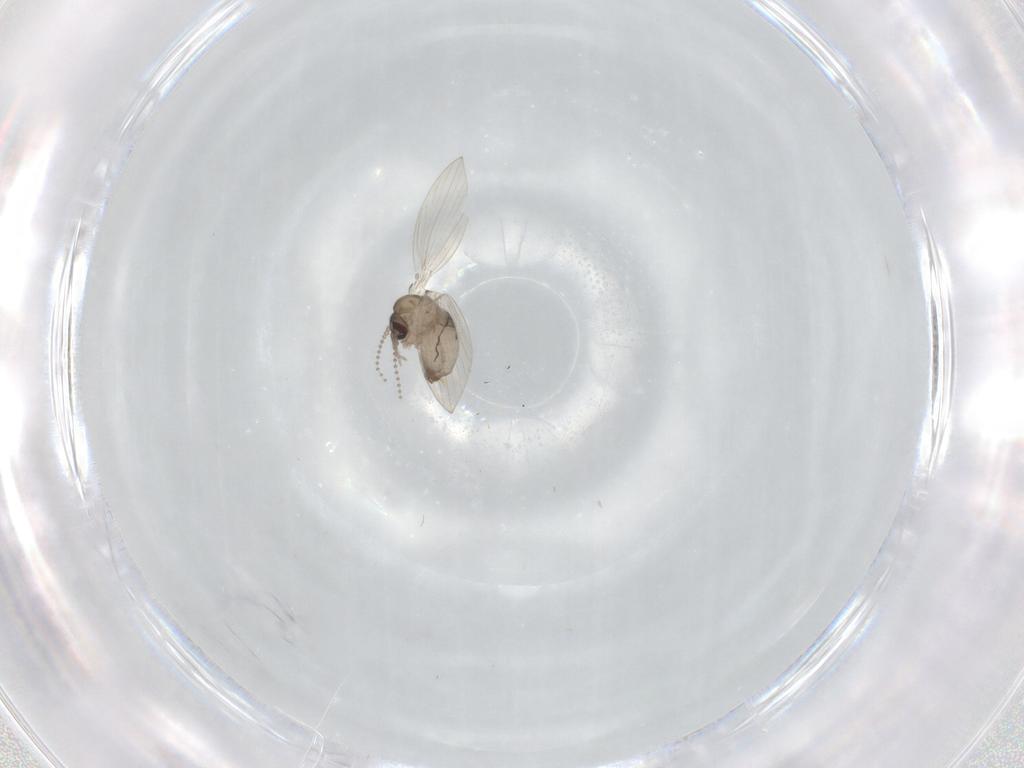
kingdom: Animalia
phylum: Arthropoda
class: Insecta
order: Diptera
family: Psychodidae
